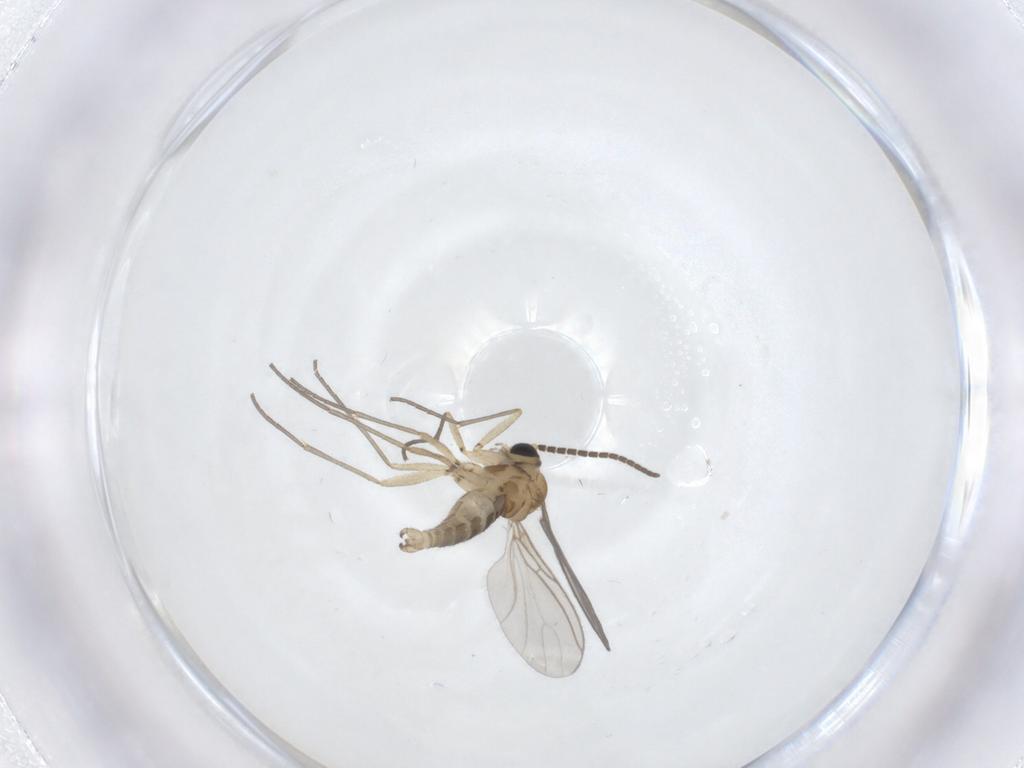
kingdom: Animalia
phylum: Arthropoda
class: Insecta
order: Diptera
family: Sciaridae
